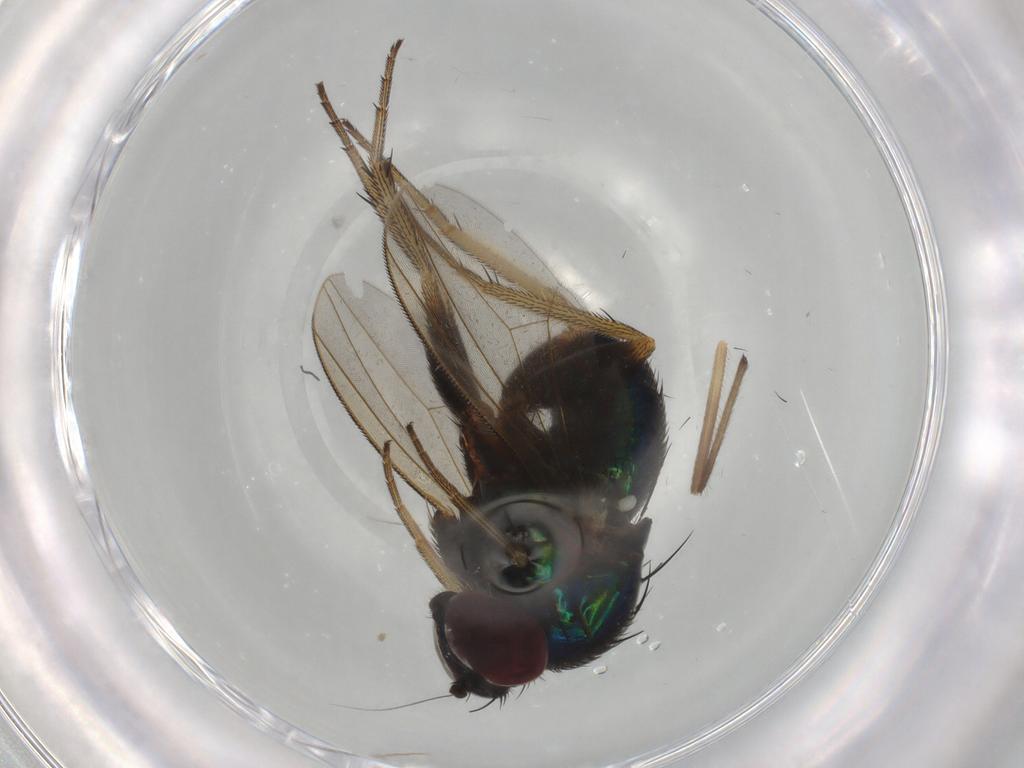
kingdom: Animalia
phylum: Arthropoda
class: Insecta
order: Diptera
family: Dolichopodidae
